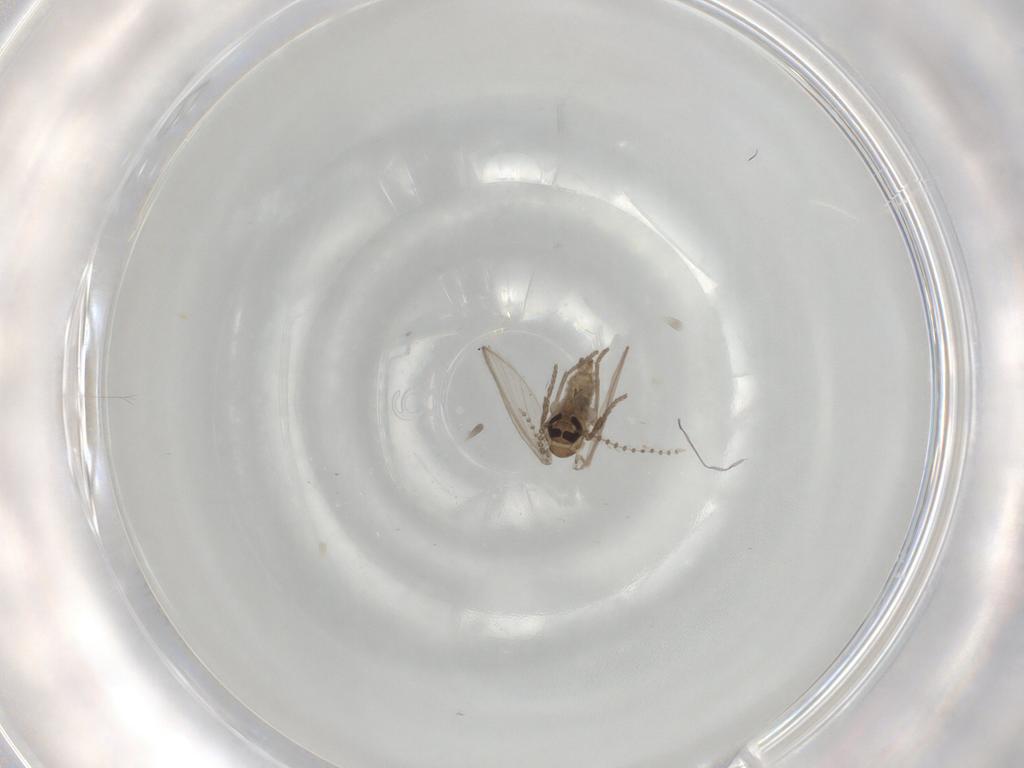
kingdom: Animalia
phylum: Arthropoda
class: Insecta
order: Diptera
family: Psychodidae
